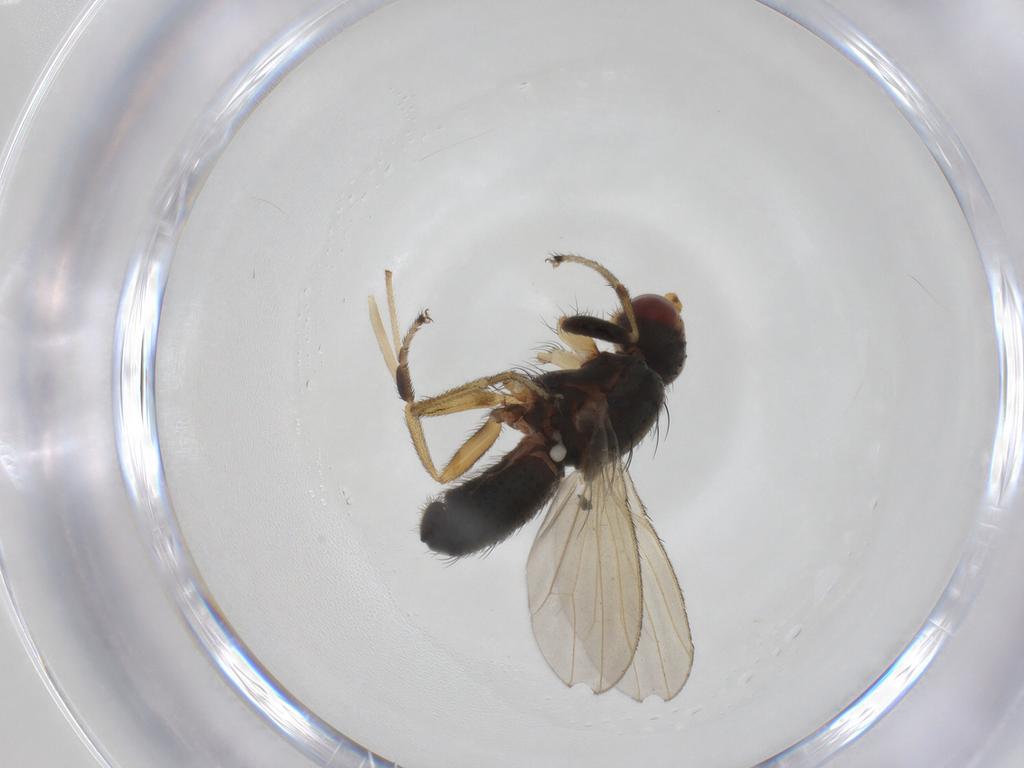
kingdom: Animalia
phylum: Arthropoda
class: Insecta
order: Diptera
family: Ulidiidae
